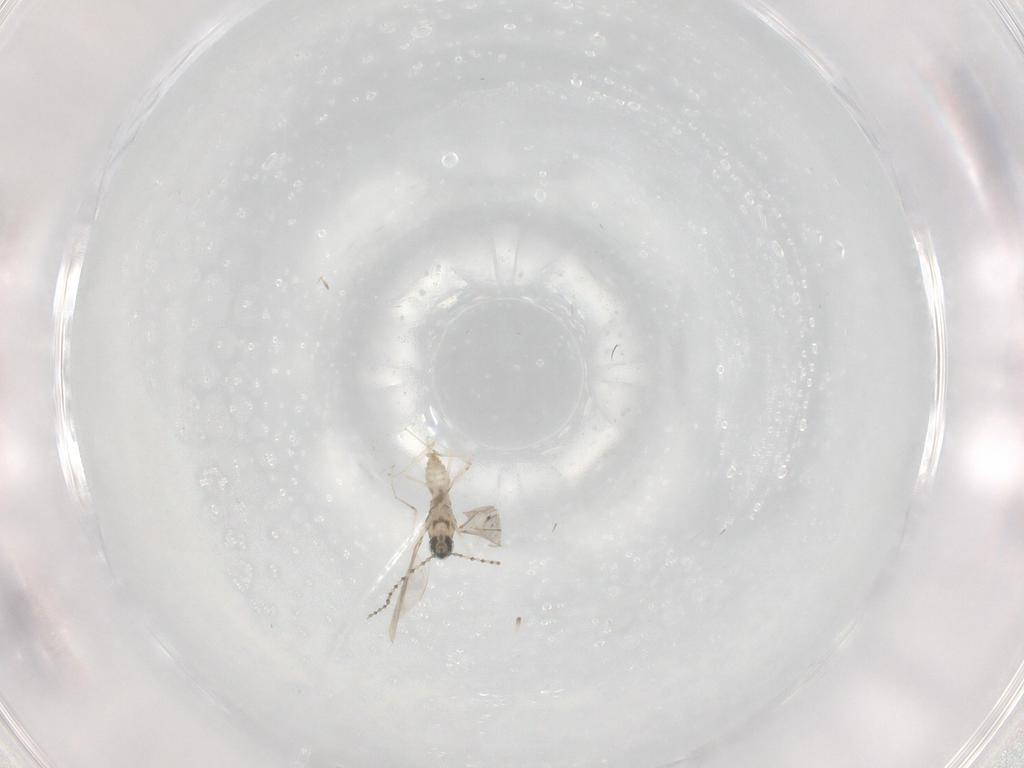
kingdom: Animalia
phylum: Arthropoda
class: Insecta
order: Diptera
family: Cecidomyiidae
